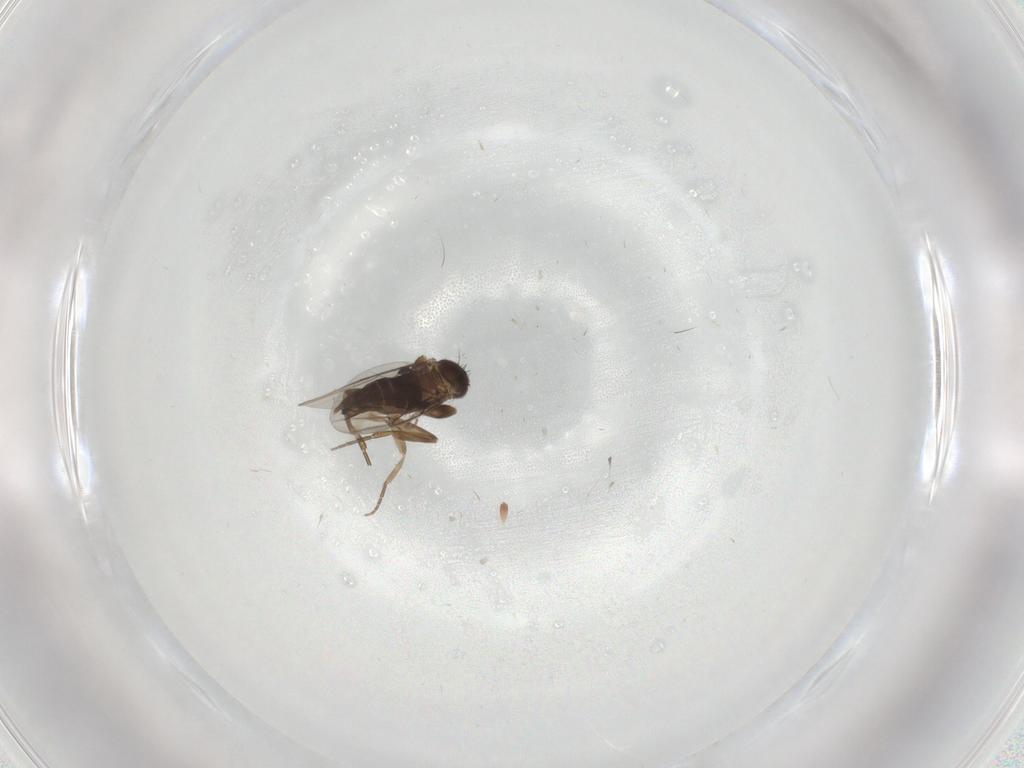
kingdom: Animalia
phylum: Arthropoda
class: Insecta
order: Diptera
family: Phoridae
